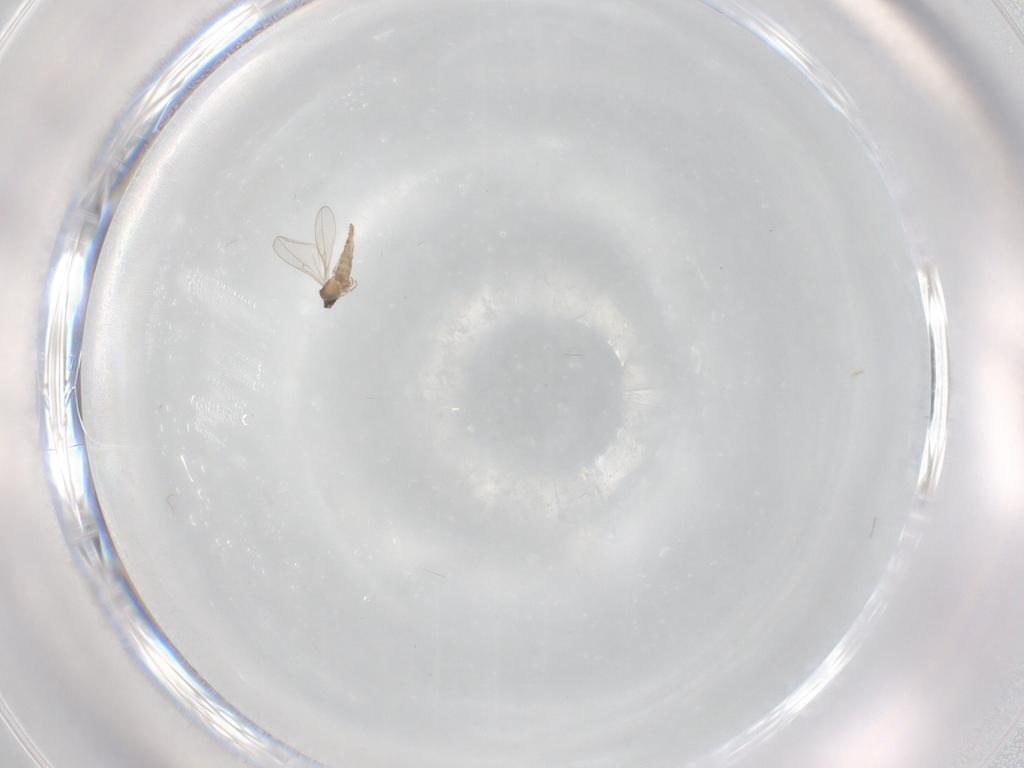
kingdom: Animalia
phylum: Arthropoda
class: Insecta
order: Diptera
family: Cecidomyiidae
